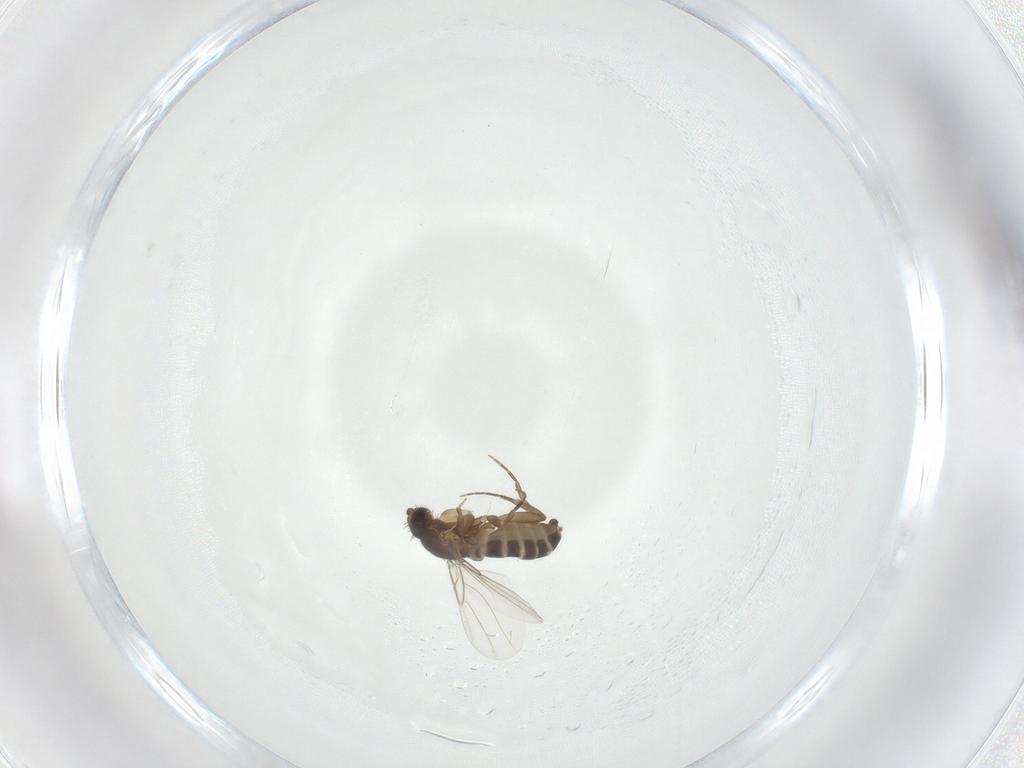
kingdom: Animalia
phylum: Arthropoda
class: Insecta
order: Diptera
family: Phoridae
